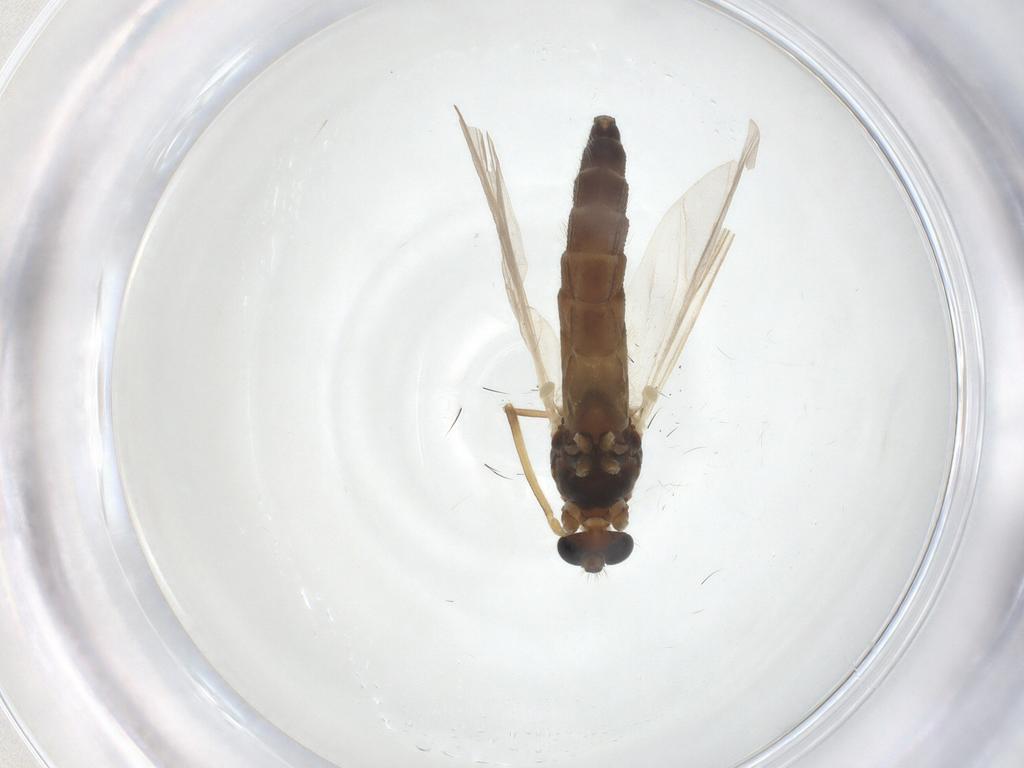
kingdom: Animalia
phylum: Arthropoda
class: Insecta
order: Diptera
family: Chironomidae
